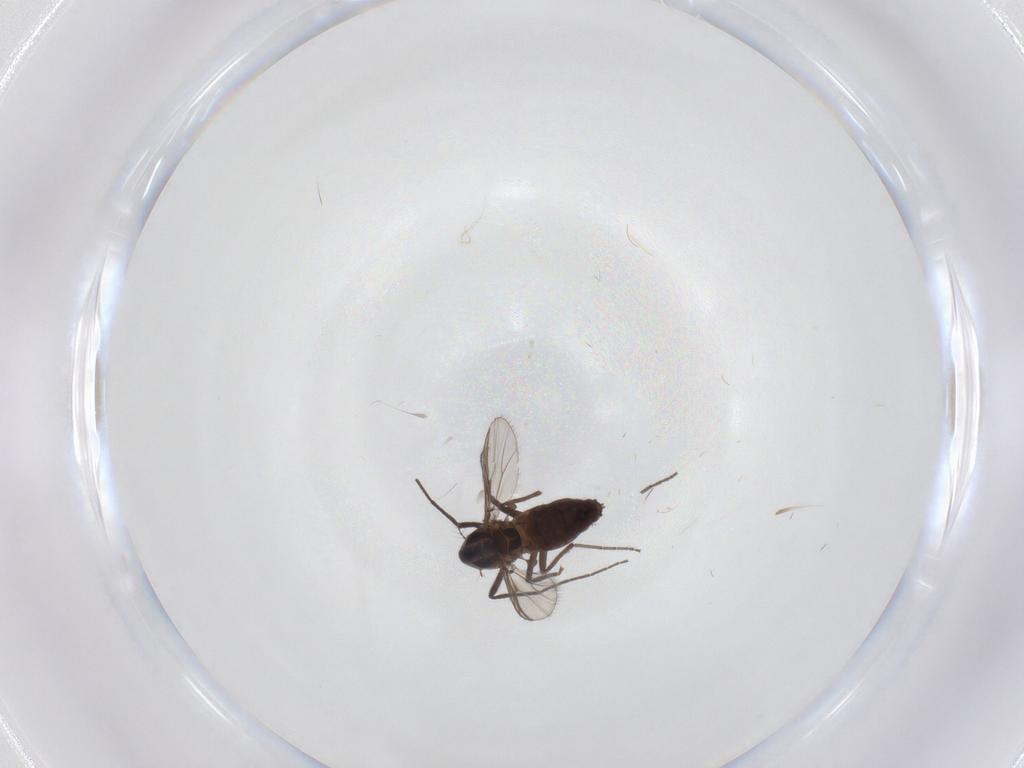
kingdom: Animalia
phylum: Arthropoda
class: Insecta
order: Diptera
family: Chironomidae
